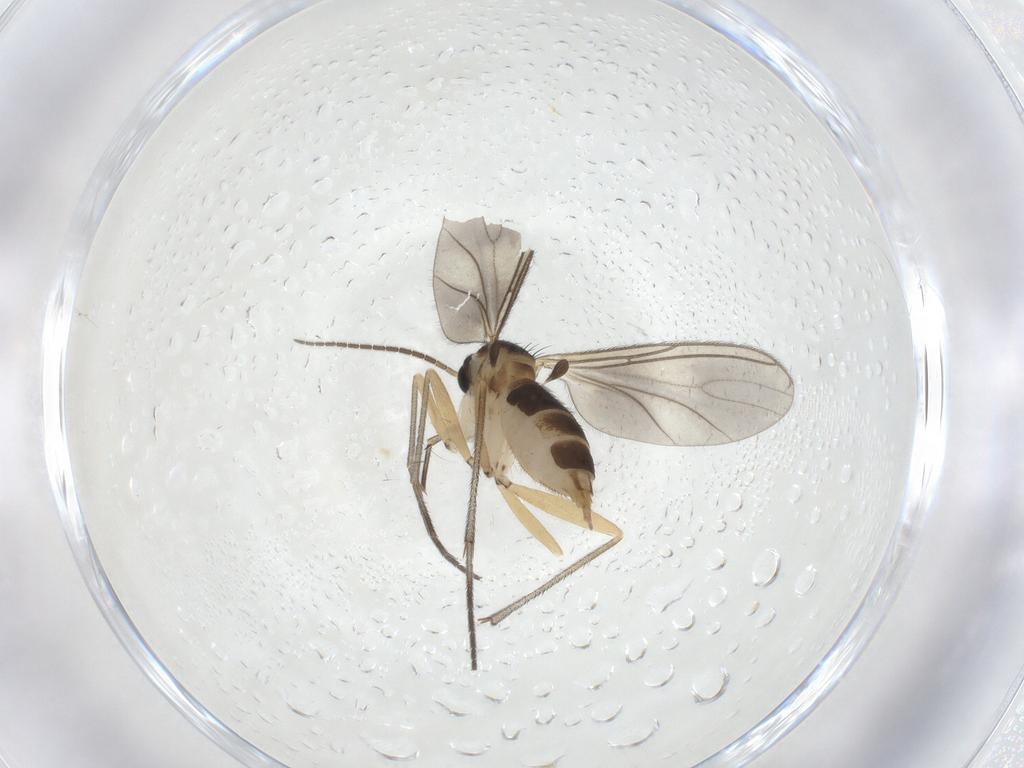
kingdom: Animalia
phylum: Arthropoda
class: Insecta
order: Diptera
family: Sciaridae
